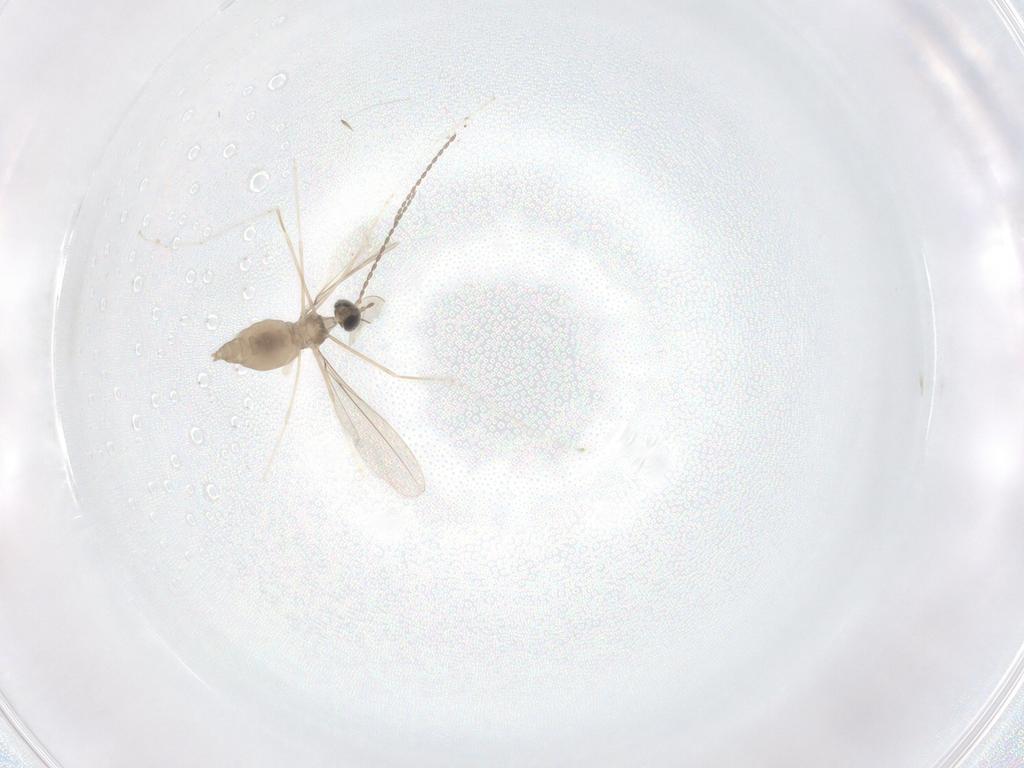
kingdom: Animalia
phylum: Arthropoda
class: Insecta
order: Diptera
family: Cecidomyiidae
